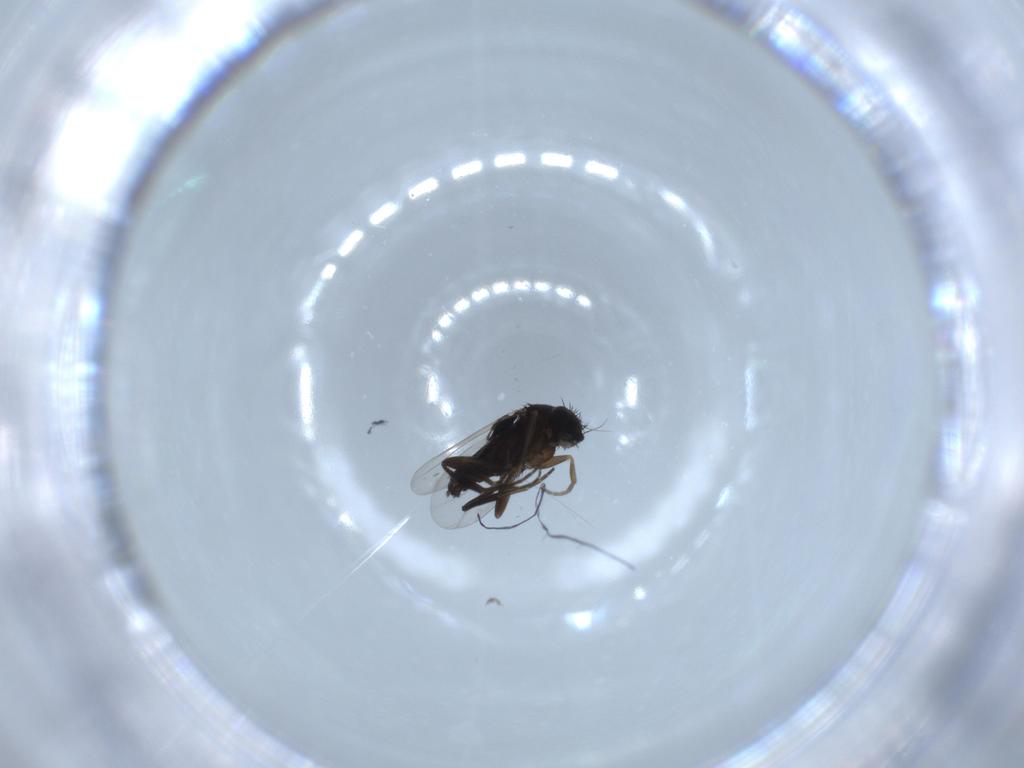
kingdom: Animalia
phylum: Arthropoda
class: Insecta
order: Diptera
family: Phoridae
